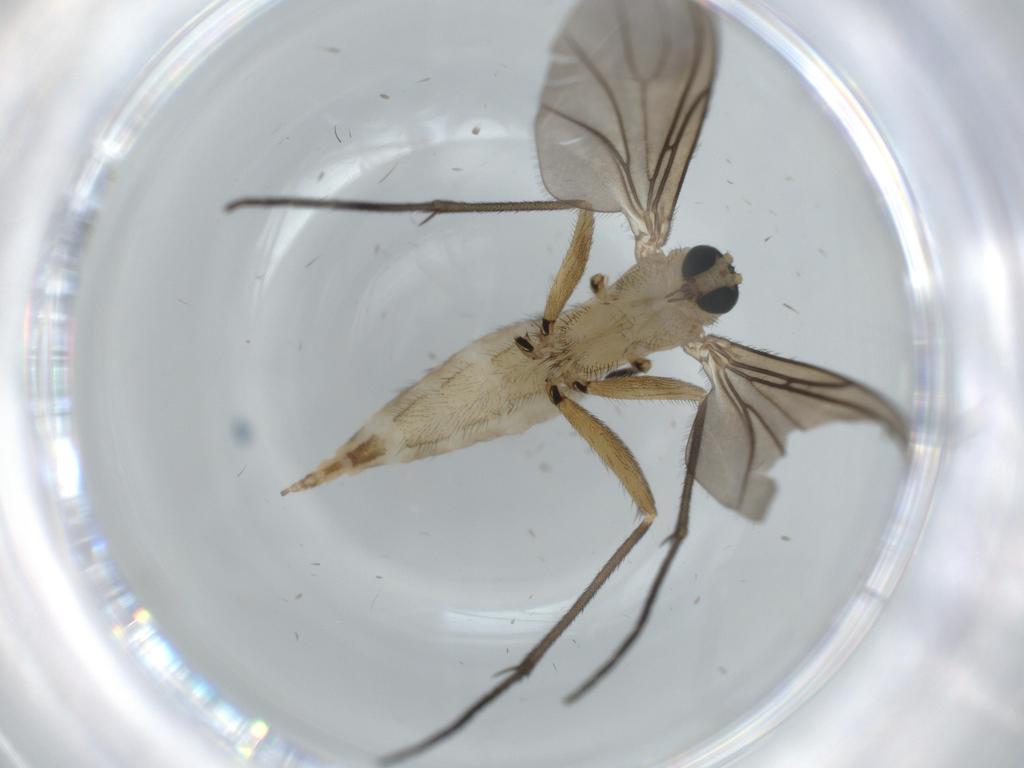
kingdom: Animalia
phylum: Arthropoda
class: Insecta
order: Diptera
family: Sciaridae
